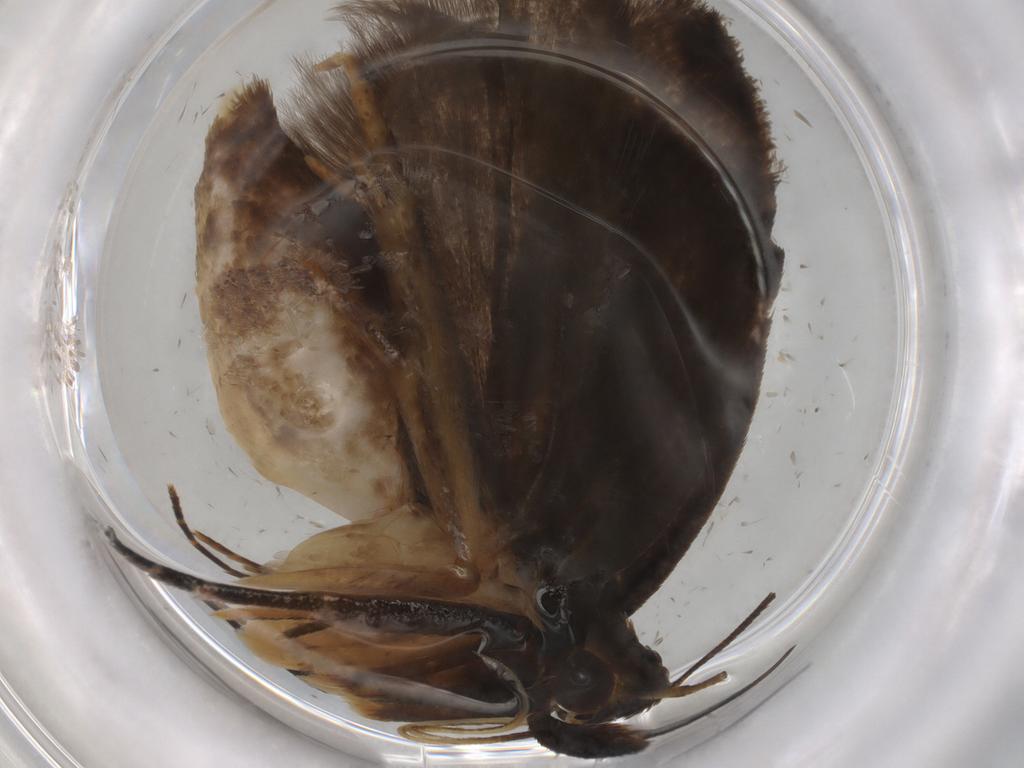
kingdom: Animalia
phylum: Arthropoda
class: Insecta
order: Lepidoptera
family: Gelechiidae
